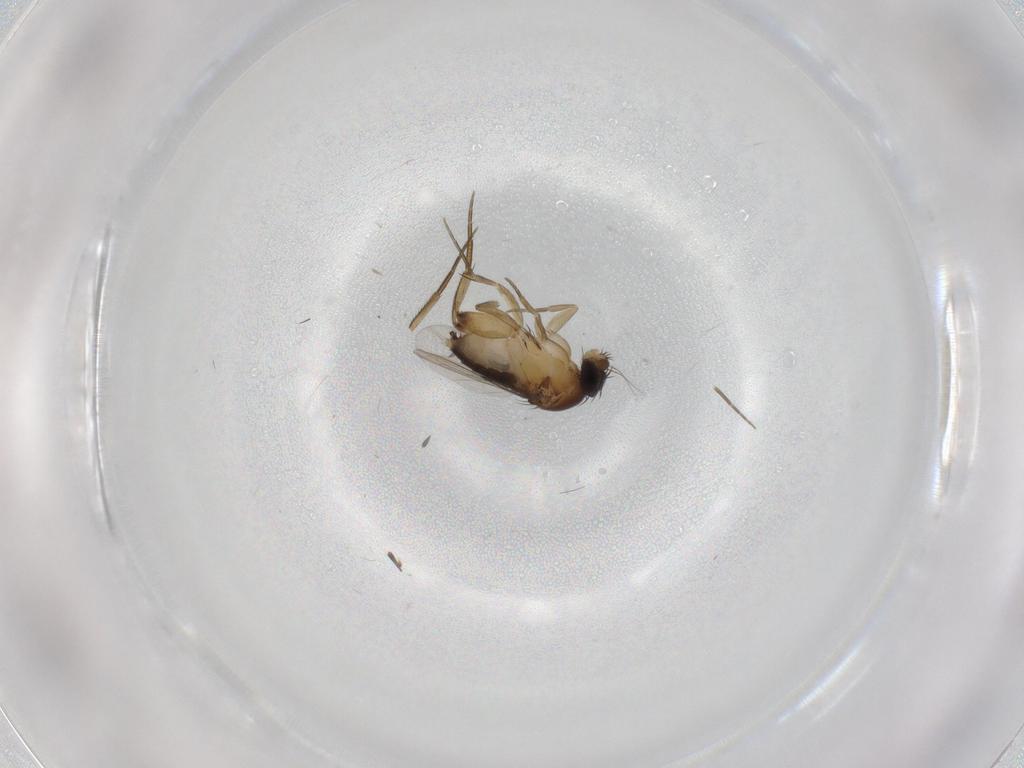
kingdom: Animalia
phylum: Arthropoda
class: Insecta
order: Diptera
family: Phoridae
